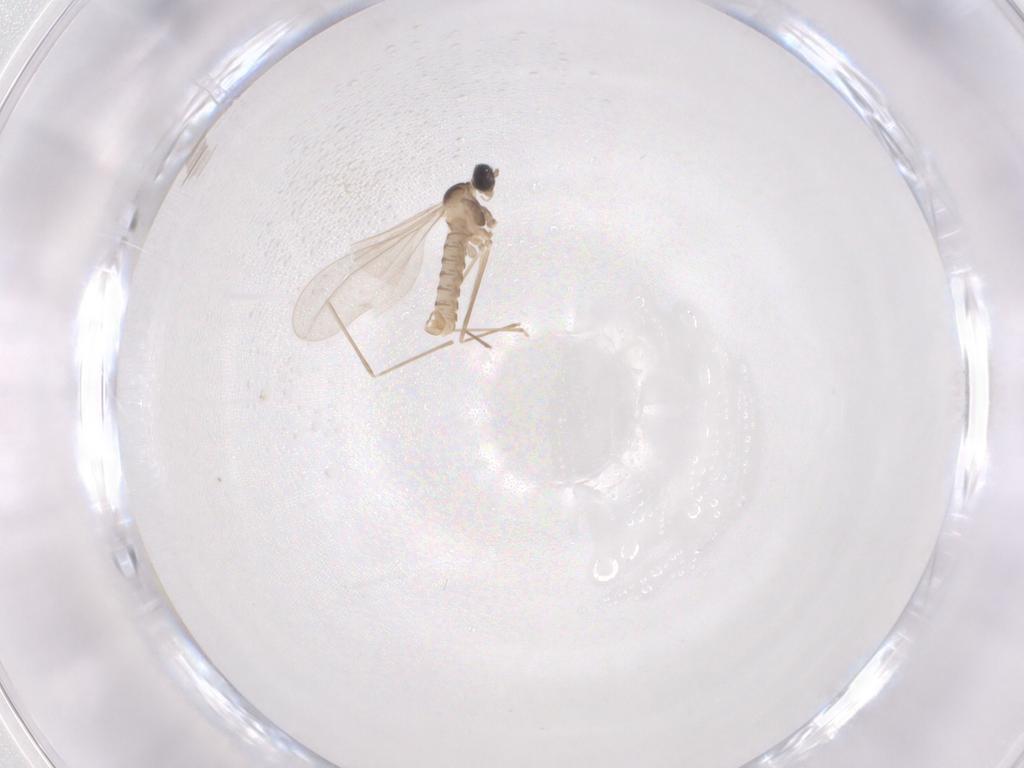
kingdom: Animalia
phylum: Arthropoda
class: Insecta
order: Diptera
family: Cecidomyiidae
